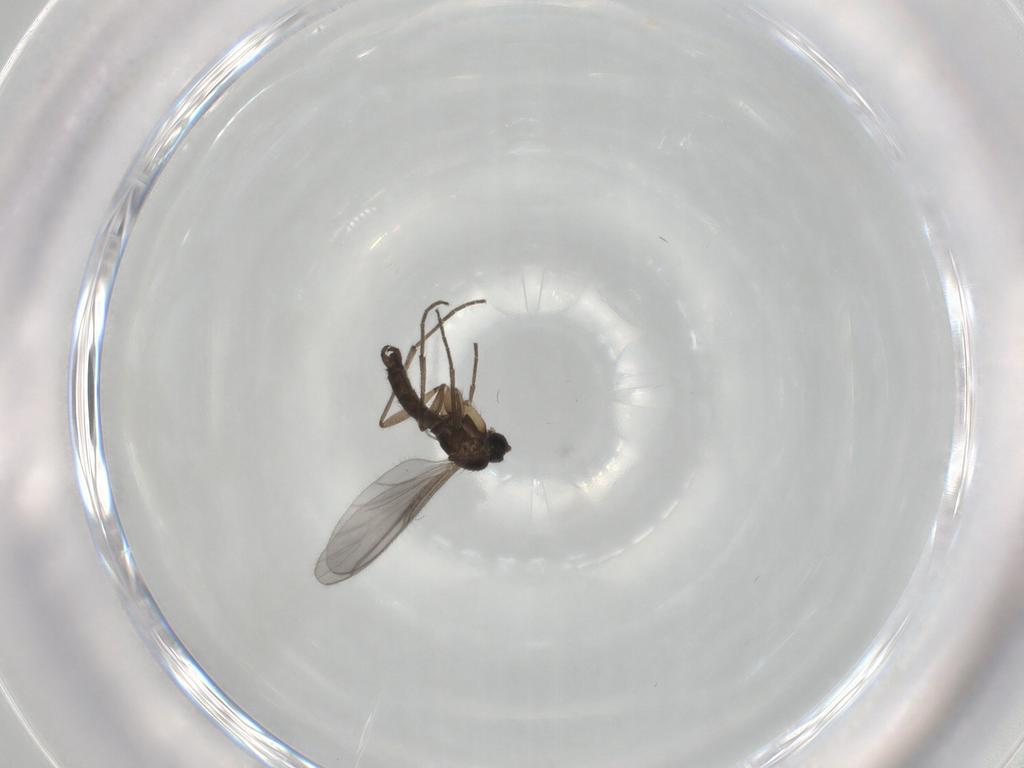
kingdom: Animalia
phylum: Arthropoda
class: Insecta
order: Diptera
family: Sciaridae
